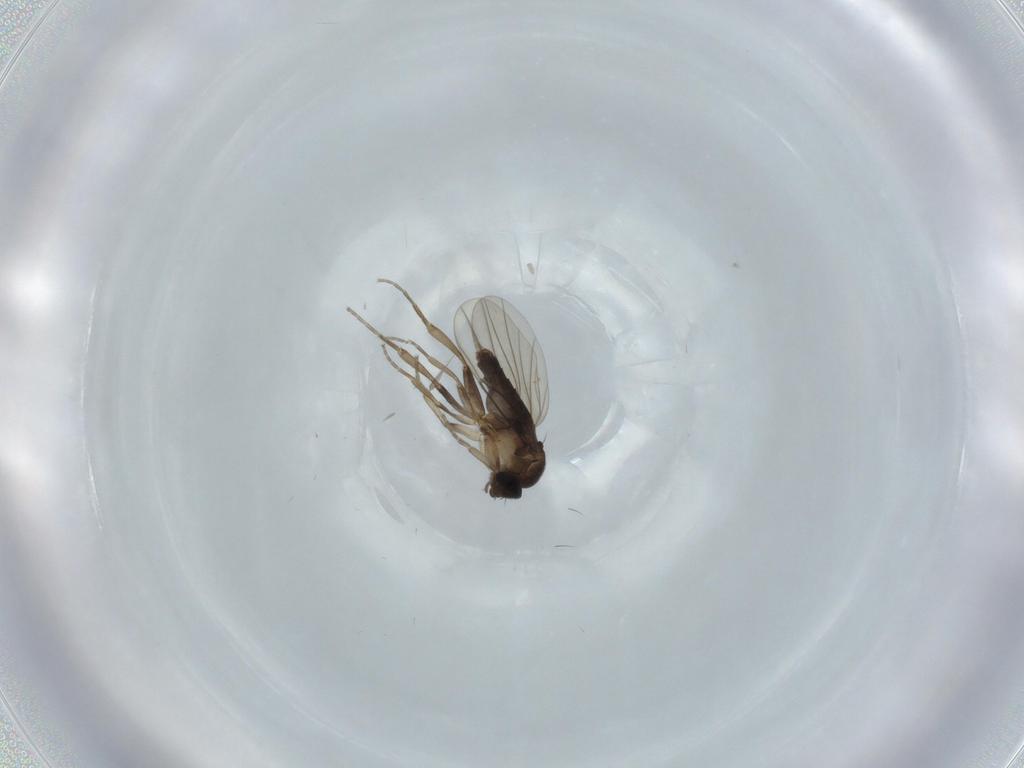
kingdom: Animalia
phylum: Arthropoda
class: Insecta
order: Diptera
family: Phoridae
